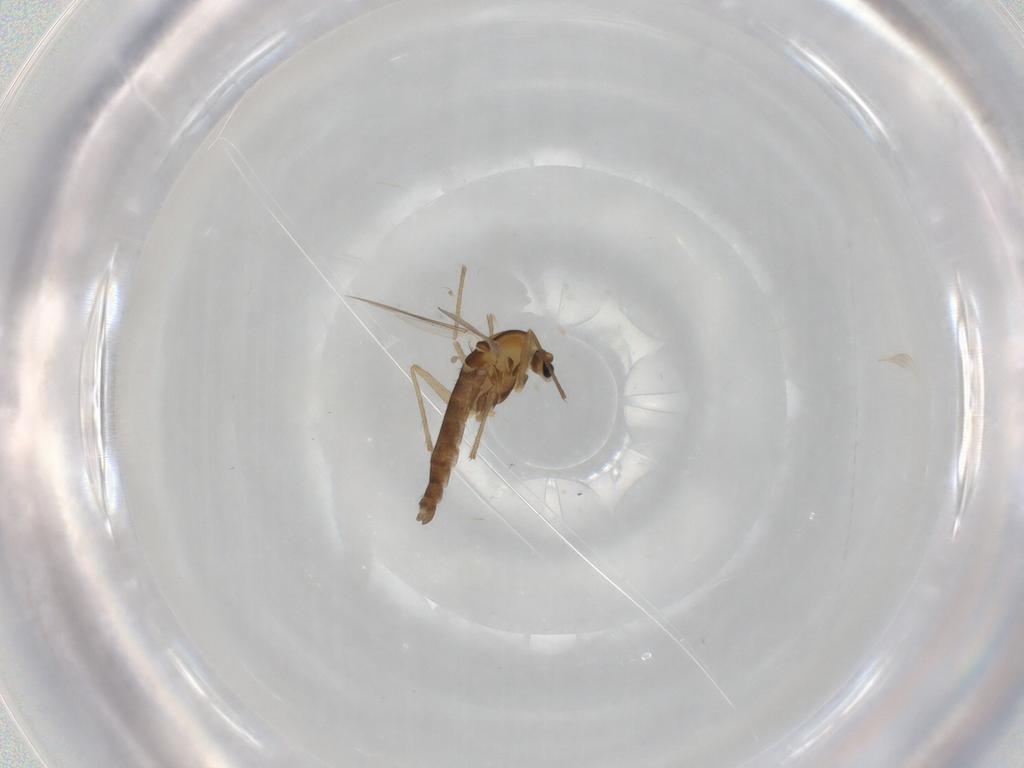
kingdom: Animalia
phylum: Arthropoda
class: Insecta
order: Diptera
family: Chironomidae
